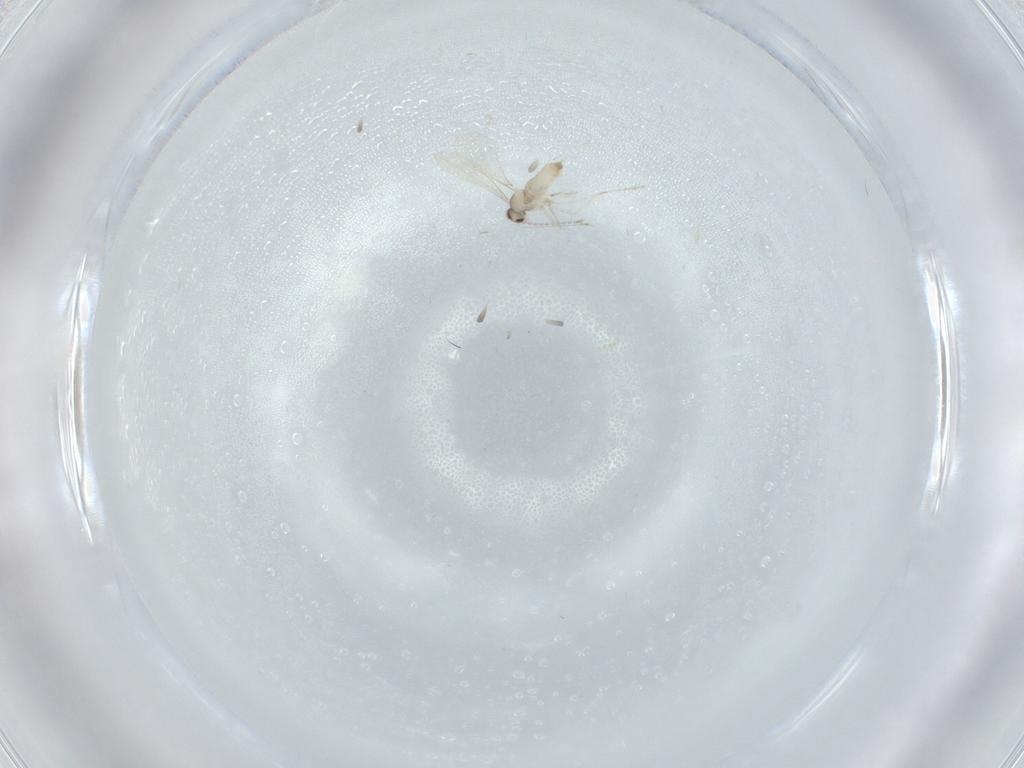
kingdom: Animalia
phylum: Arthropoda
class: Insecta
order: Diptera
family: Cecidomyiidae
